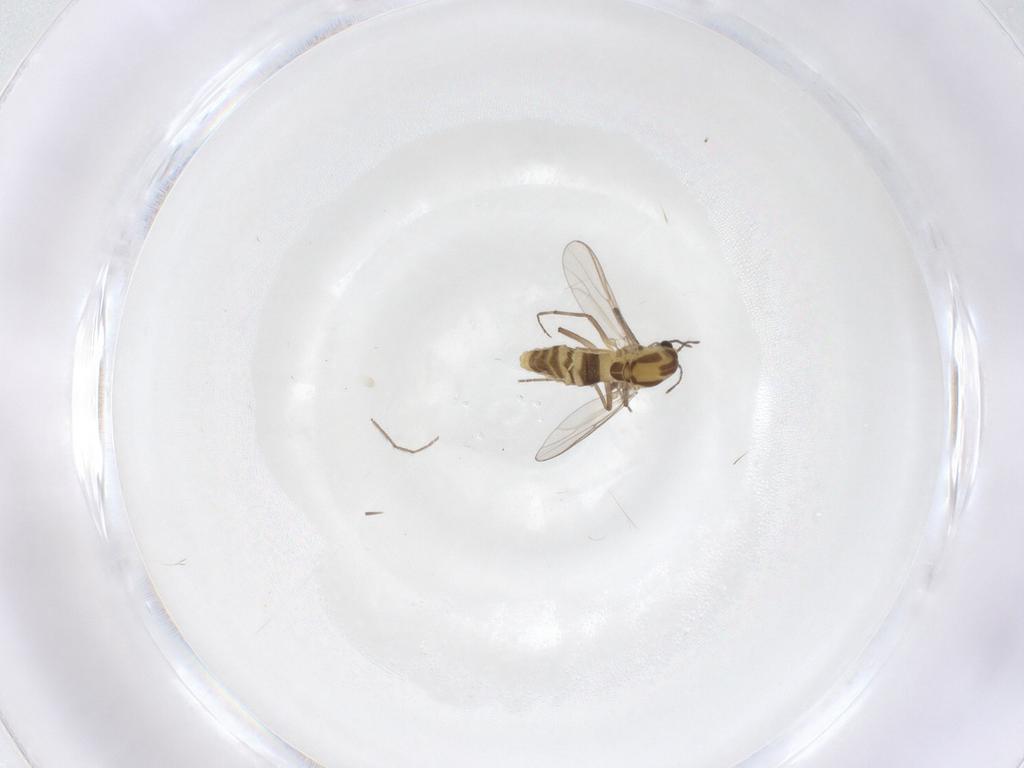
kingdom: Animalia
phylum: Arthropoda
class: Insecta
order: Diptera
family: Chironomidae
